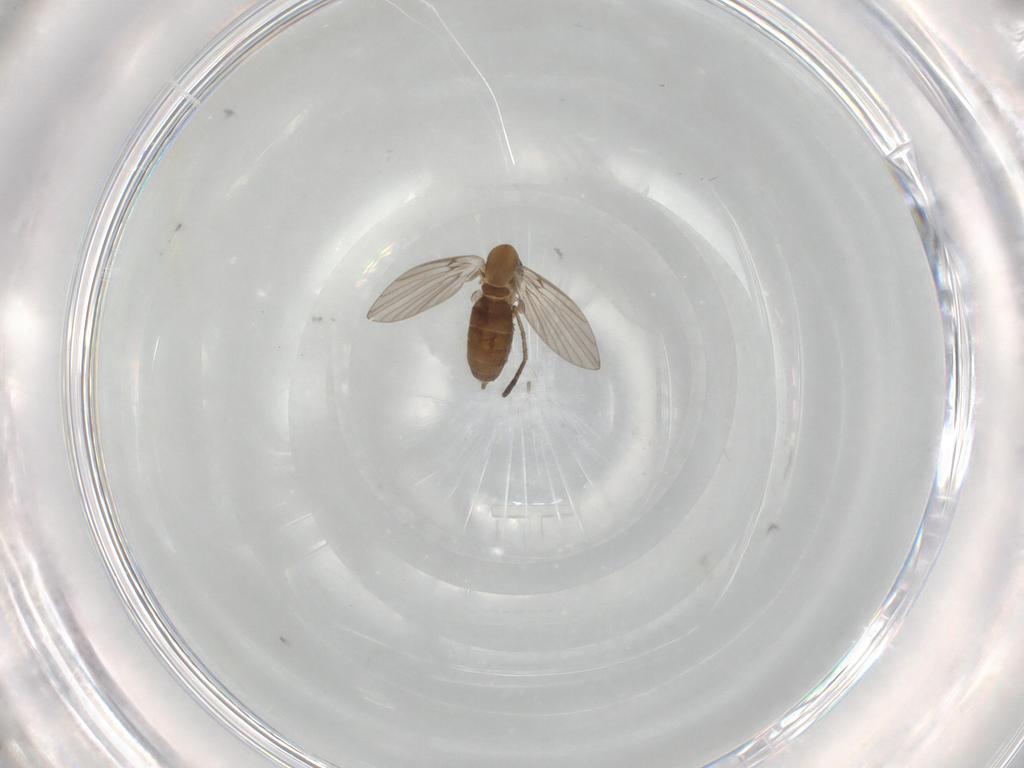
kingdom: Animalia
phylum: Arthropoda
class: Insecta
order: Diptera
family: Psychodidae
